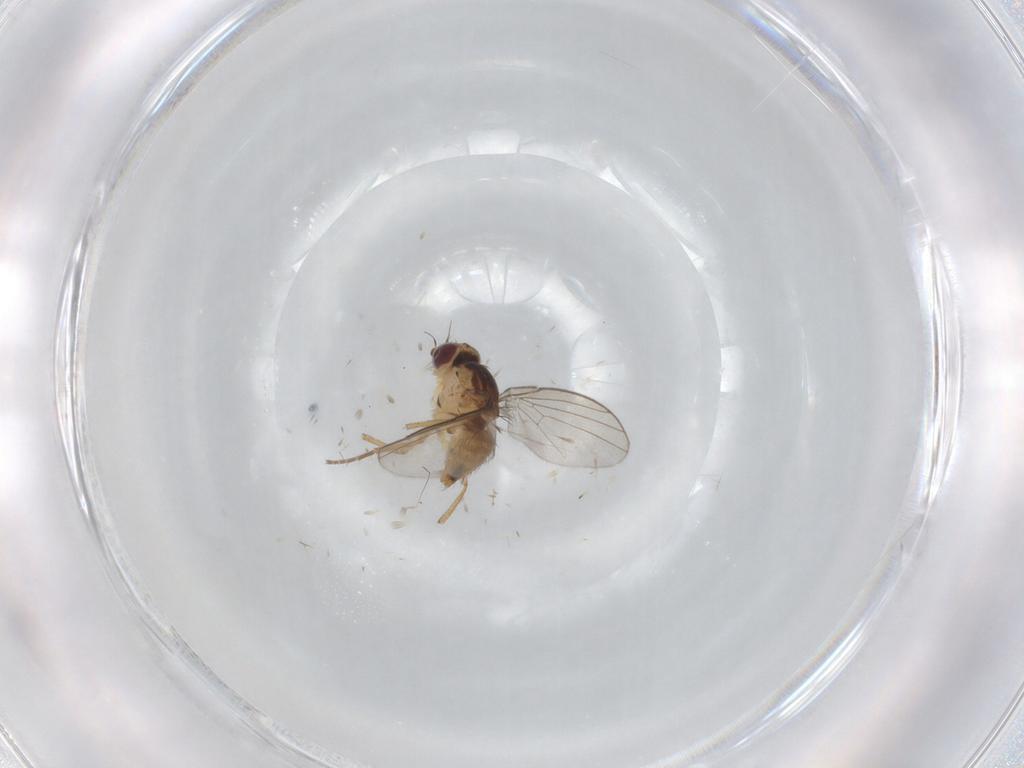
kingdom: Animalia
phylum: Arthropoda
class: Insecta
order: Diptera
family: Agromyzidae
